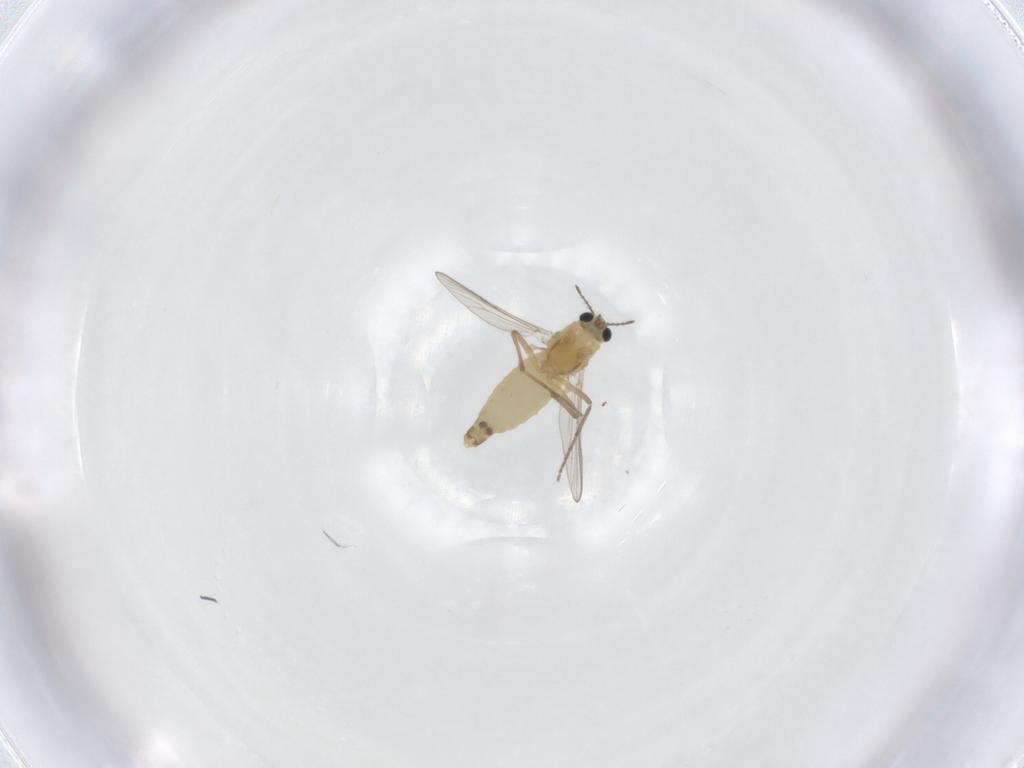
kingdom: Animalia
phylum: Arthropoda
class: Insecta
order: Diptera
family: Chironomidae
